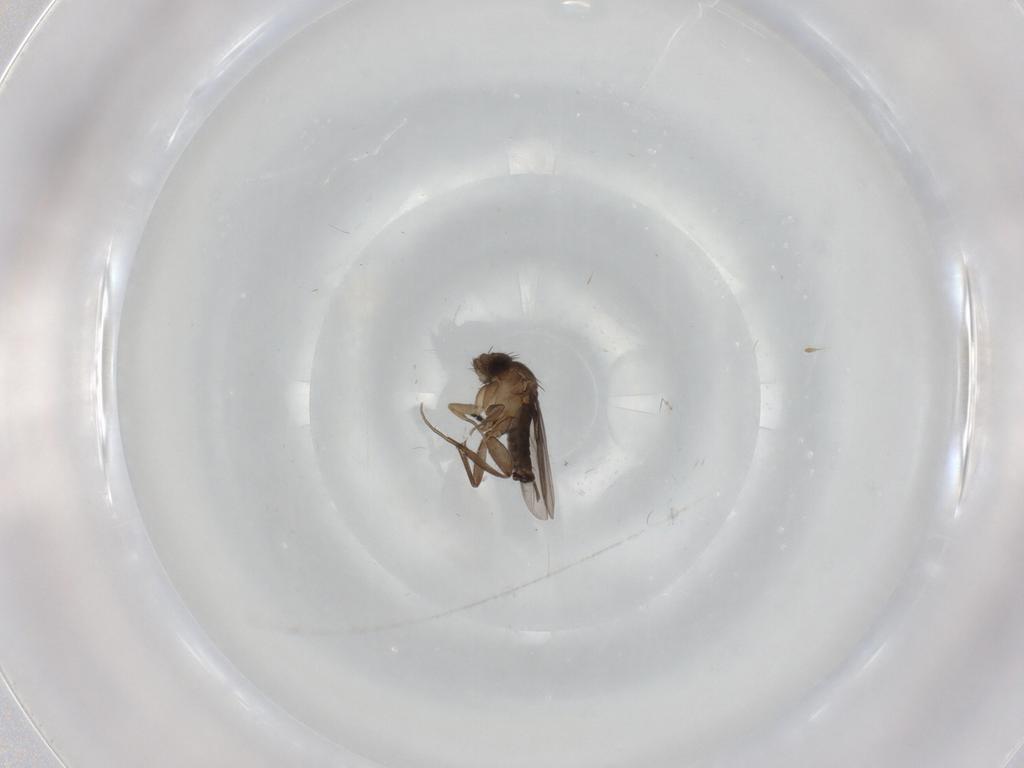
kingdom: Animalia
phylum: Arthropoda
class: Insecta
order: Diptera
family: Phoridae
